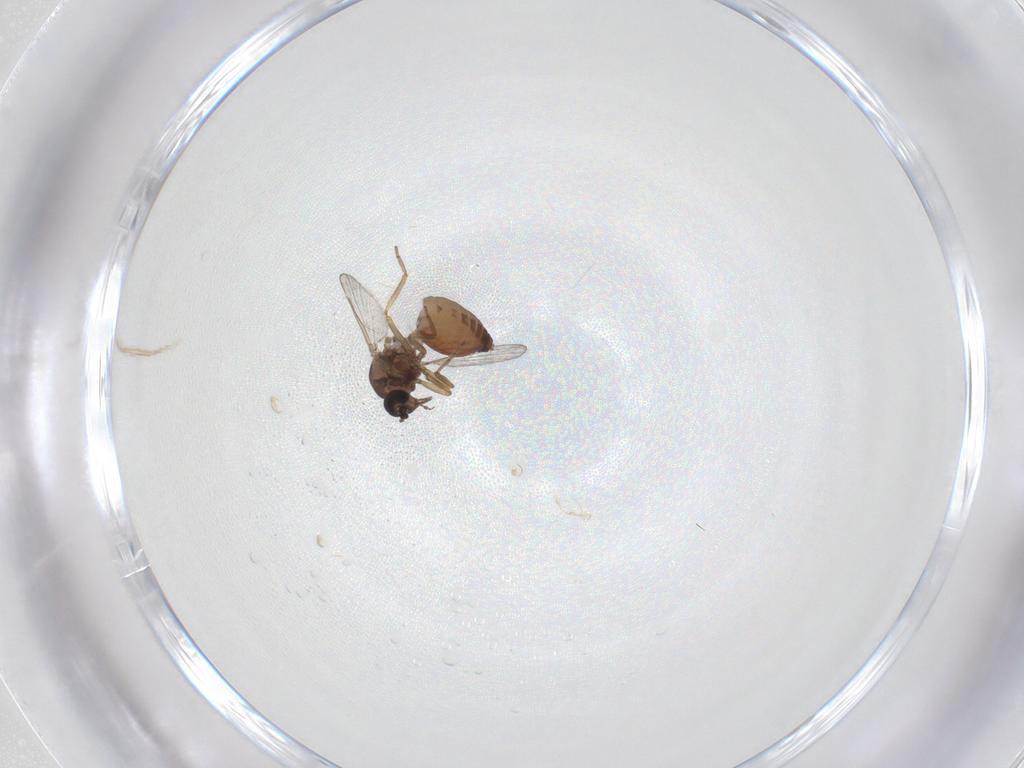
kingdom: Animalia
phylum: Arthropoda
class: Insecta
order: Diptera
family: Ceratopogonidae
